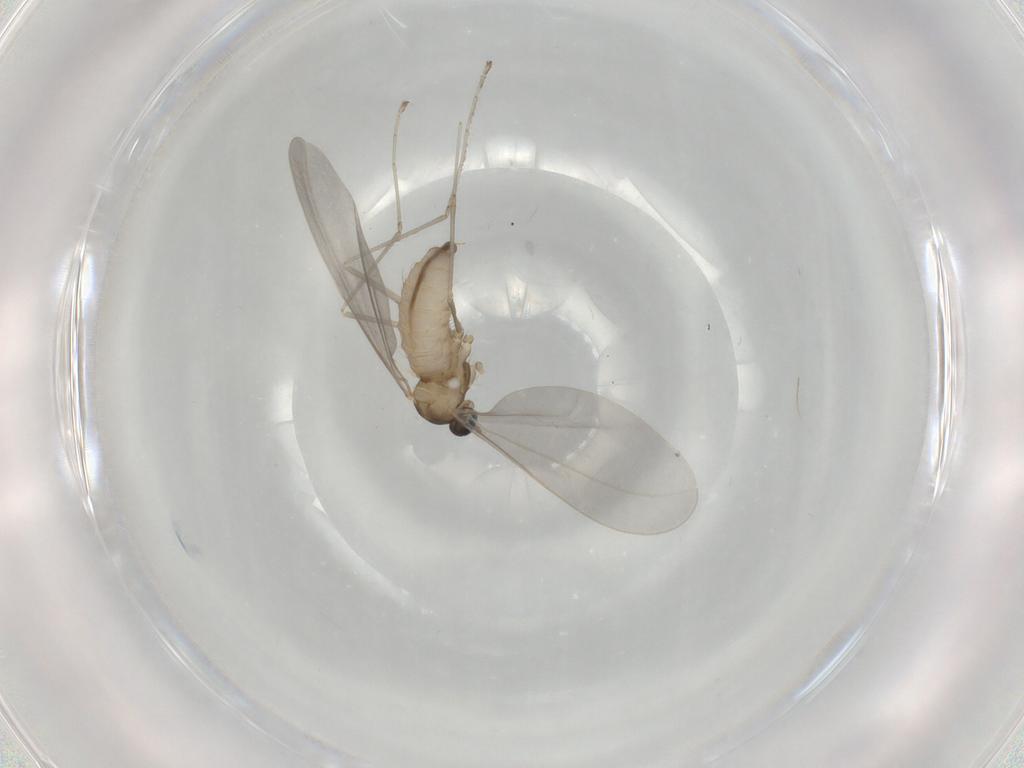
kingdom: Animalia
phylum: Arthropoda
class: Insecta
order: Diptera
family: Cecidomyiidae
